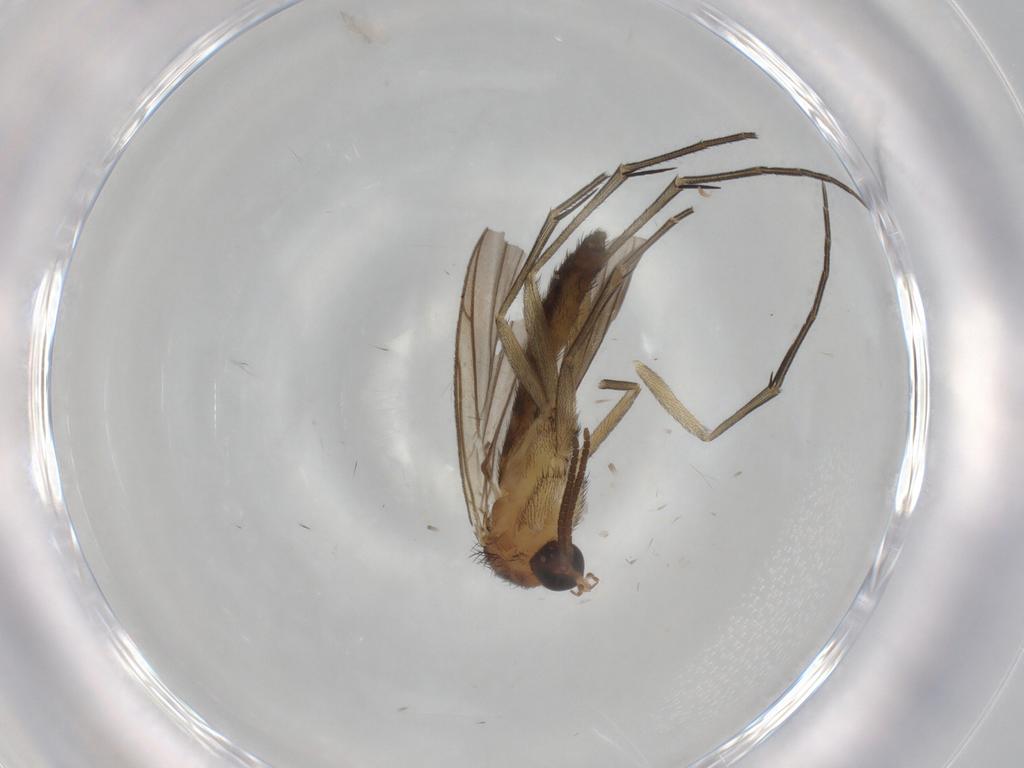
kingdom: Animalia
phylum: Arthropoda
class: Insecta
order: Diptera
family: Keroplatidae
